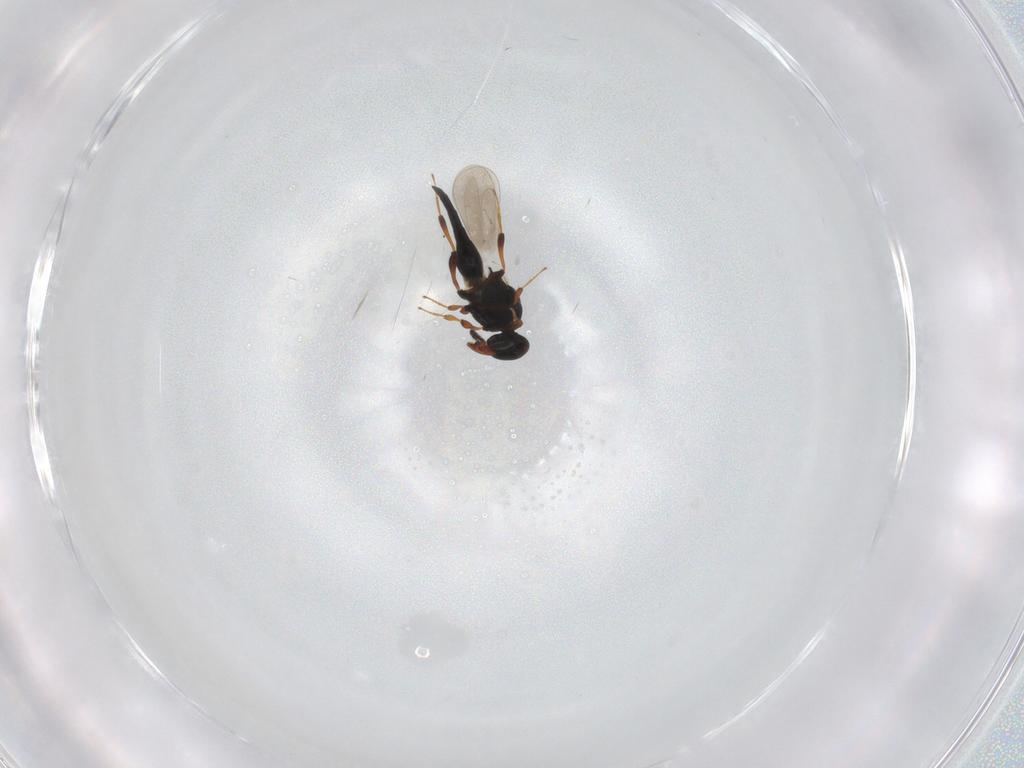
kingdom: Animalia
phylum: Arthropoda
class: Insecta
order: Hymenoptera
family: Platygastridae
